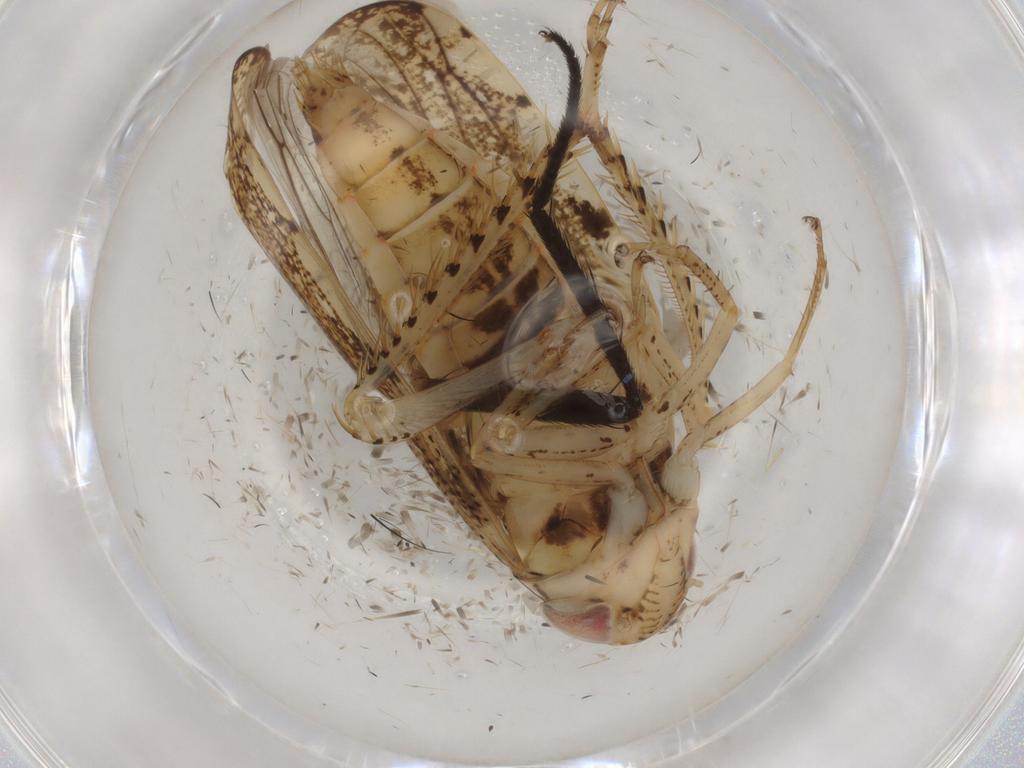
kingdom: Animalia
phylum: Arthropoda
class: Insecta
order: Hemiptera
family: Cicadellidae
